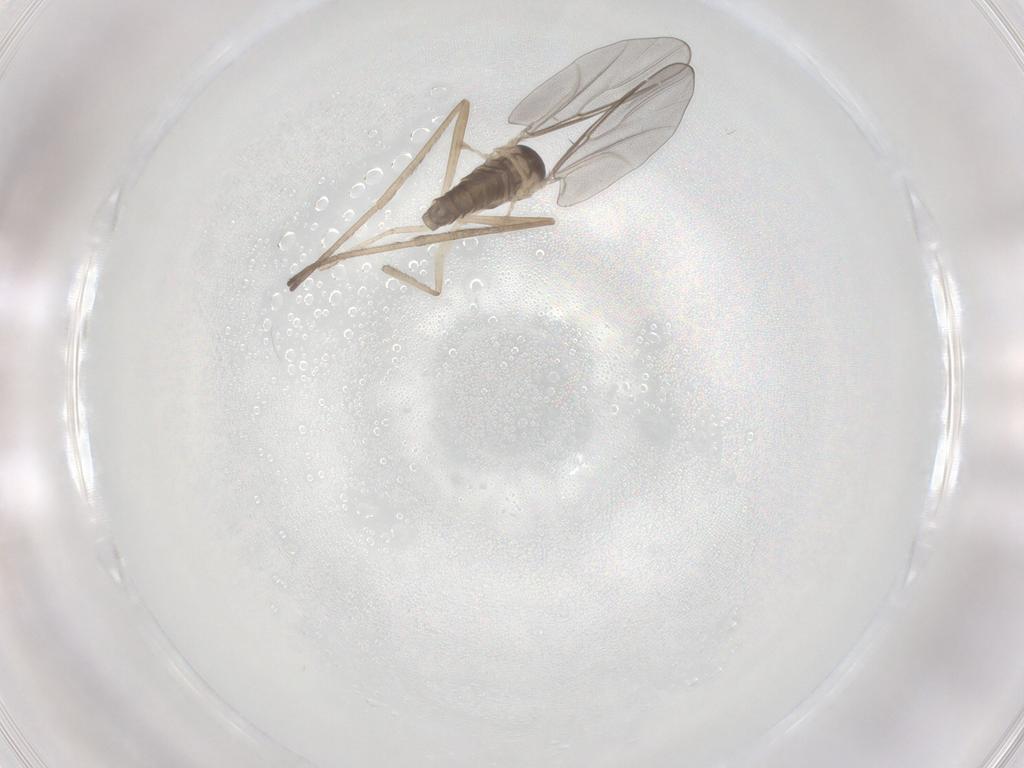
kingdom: Animalia
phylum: Arthropoda
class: Insecta
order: Diptera
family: Cecidomyiidae
